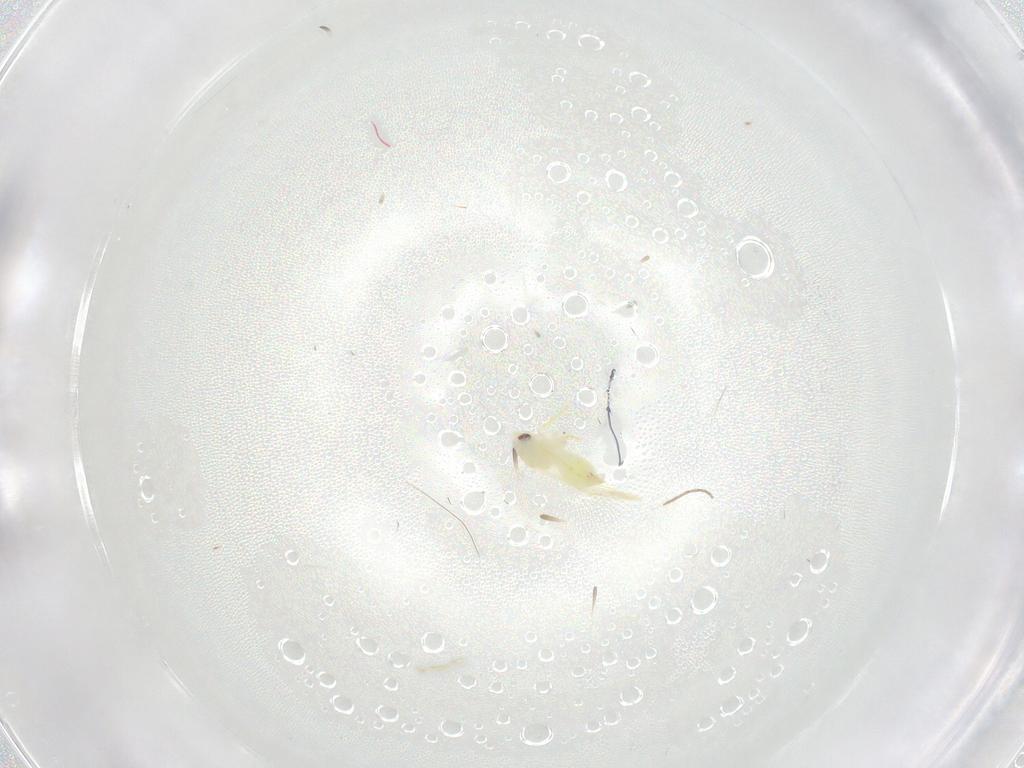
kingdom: Animalia
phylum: Arthropoda
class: Insecta
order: Hemiptera
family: Aleyrodidae
